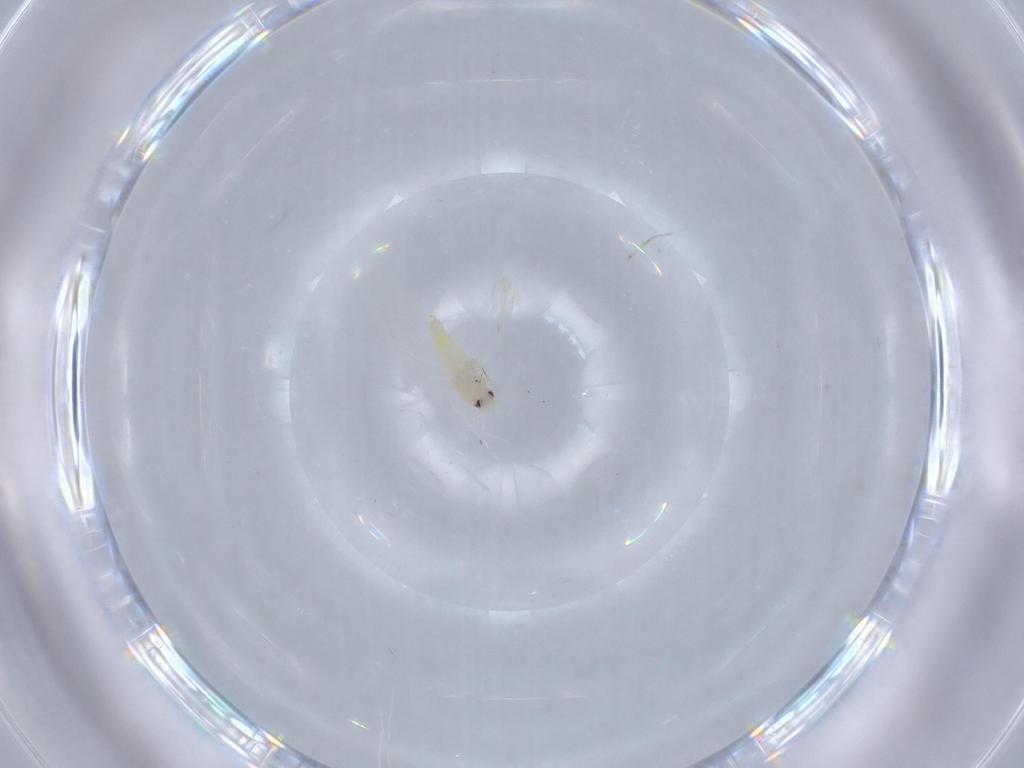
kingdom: Animalia
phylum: Arthropoda
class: Insecta
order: Hemiptera
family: Aleyrodidae
